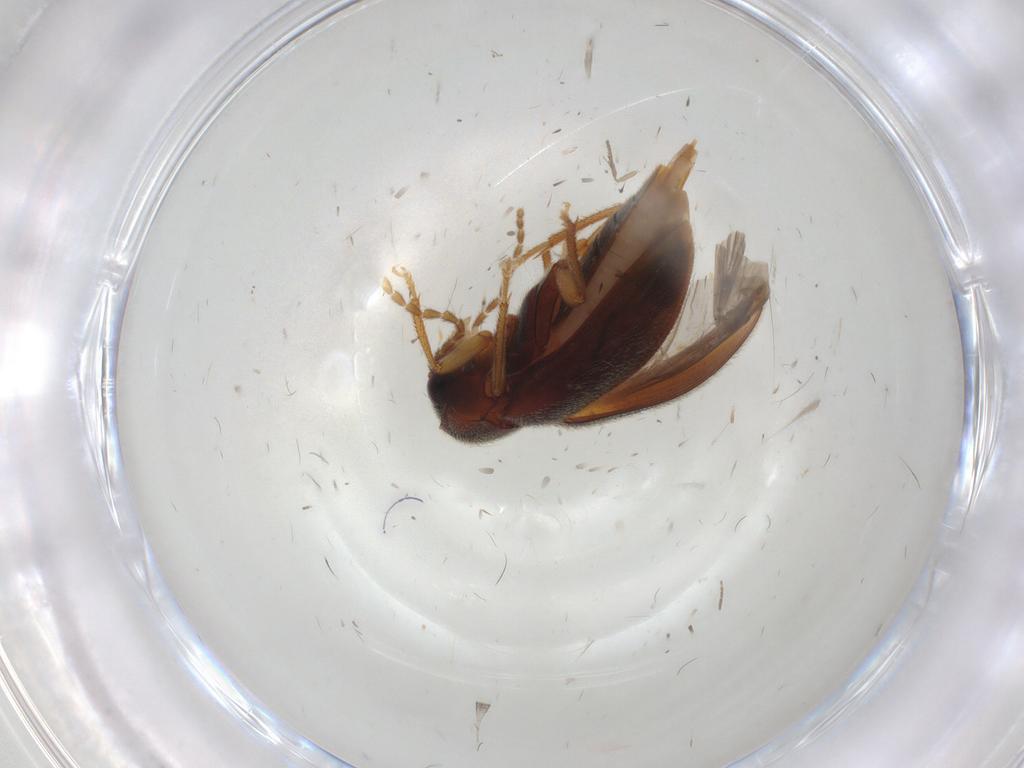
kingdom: Animalia
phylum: Arthropoda
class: Insecta
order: Coleoptera
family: Ptilodactylidae
